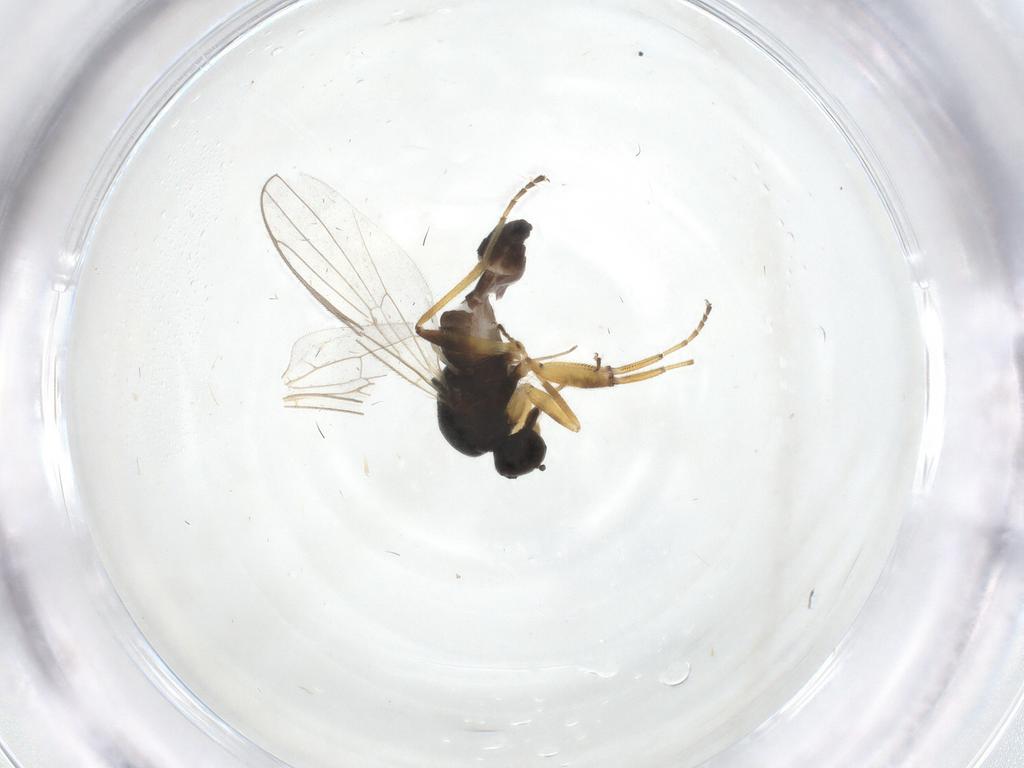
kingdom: Animalia
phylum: Arthropoda
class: Insecta
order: Diptera
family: Hybotidae
